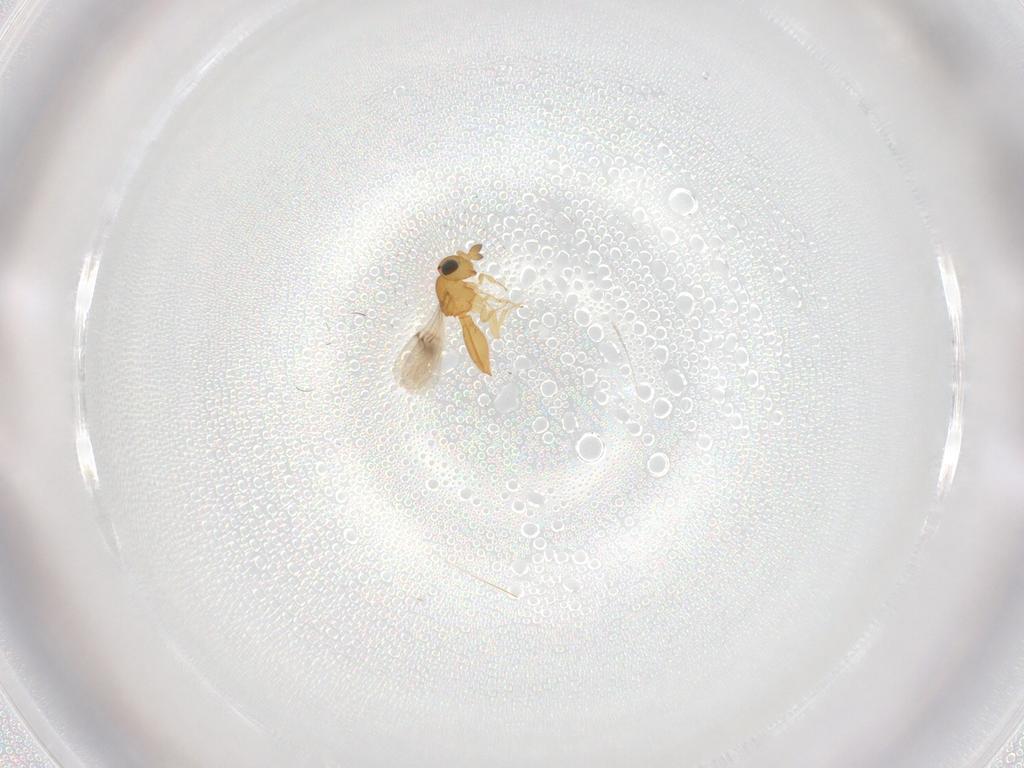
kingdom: Animalia
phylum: Arthropoda
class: Insecta
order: Hymenoptera
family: Scelionidae
